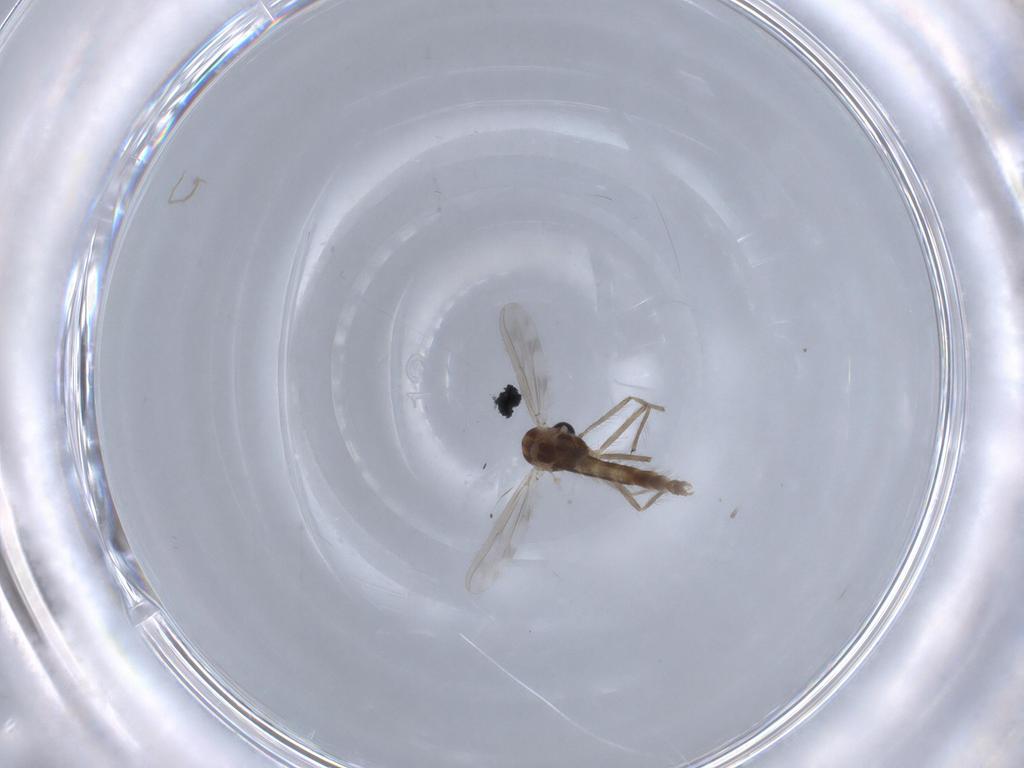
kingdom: Animalia
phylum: Arthropoda
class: Insecta
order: Diptera
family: Chironomidae
